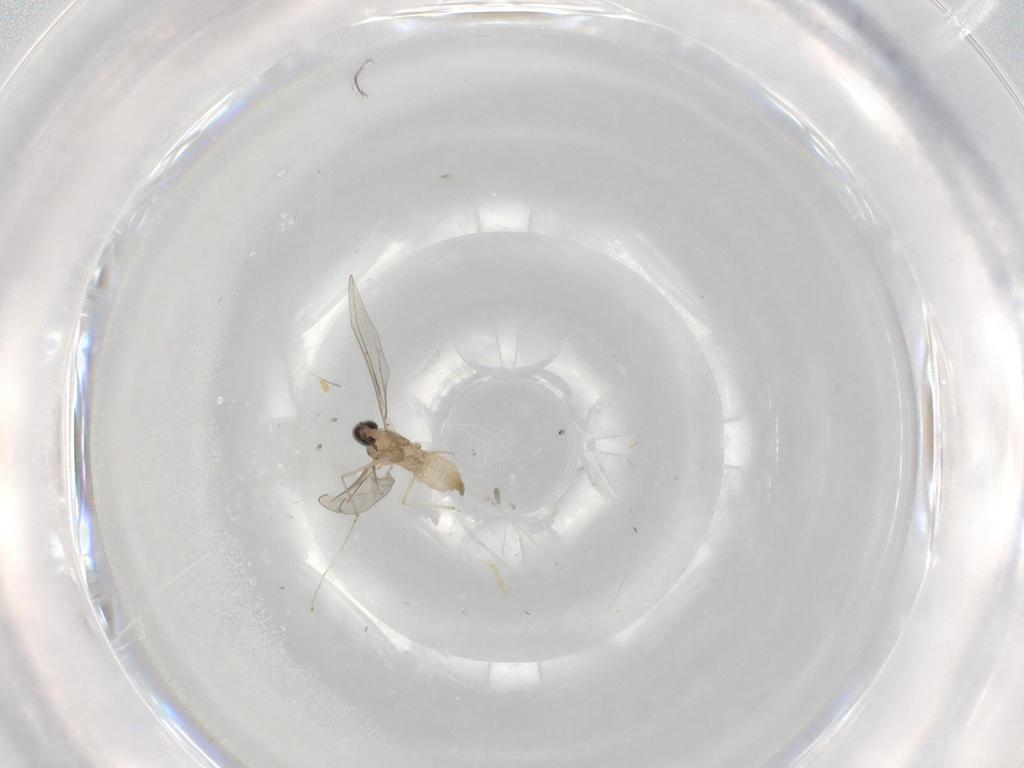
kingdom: Animalia
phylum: Arthropoda
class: Insecta
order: Diptera
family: Cecidomyiidae
